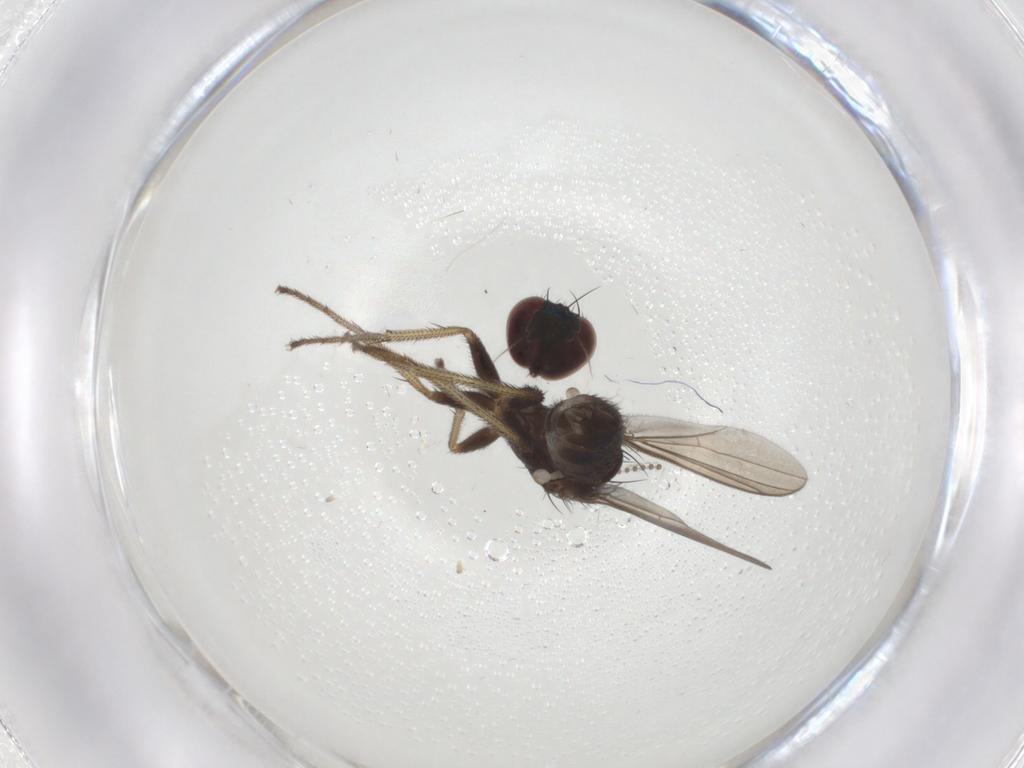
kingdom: Animalia
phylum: Arthropoda
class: Insecta
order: Diptera
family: Dolichopodidae
